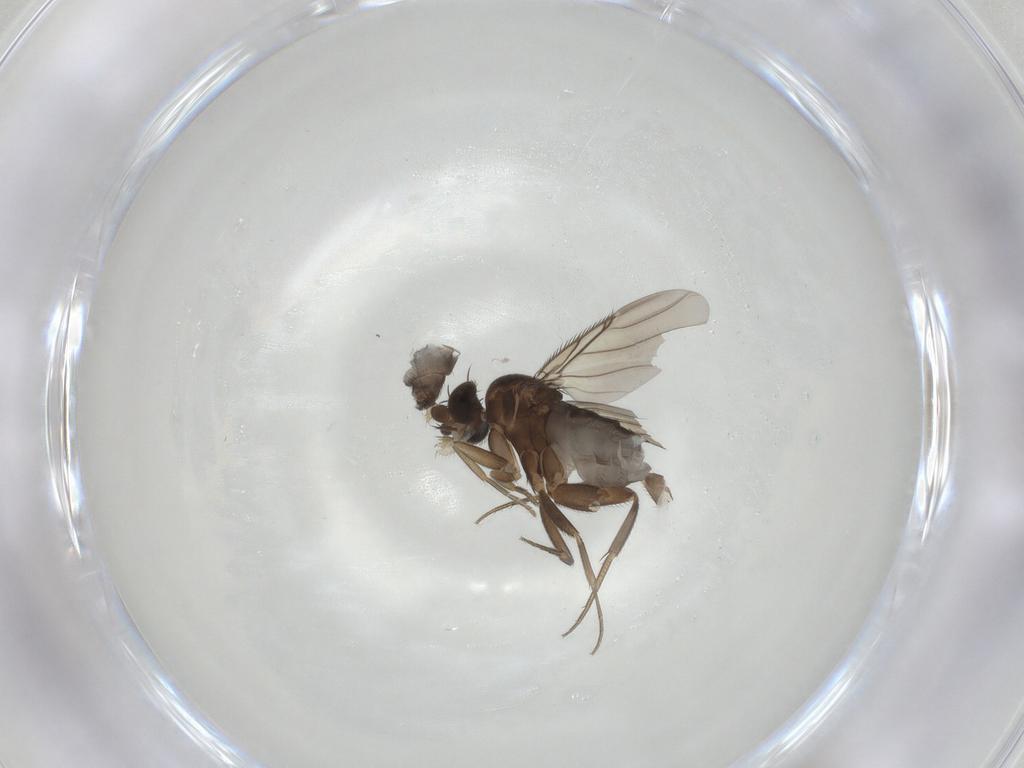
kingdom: Animalia
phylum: Arthropoda
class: Insecta
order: Diptera
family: Phoridae
